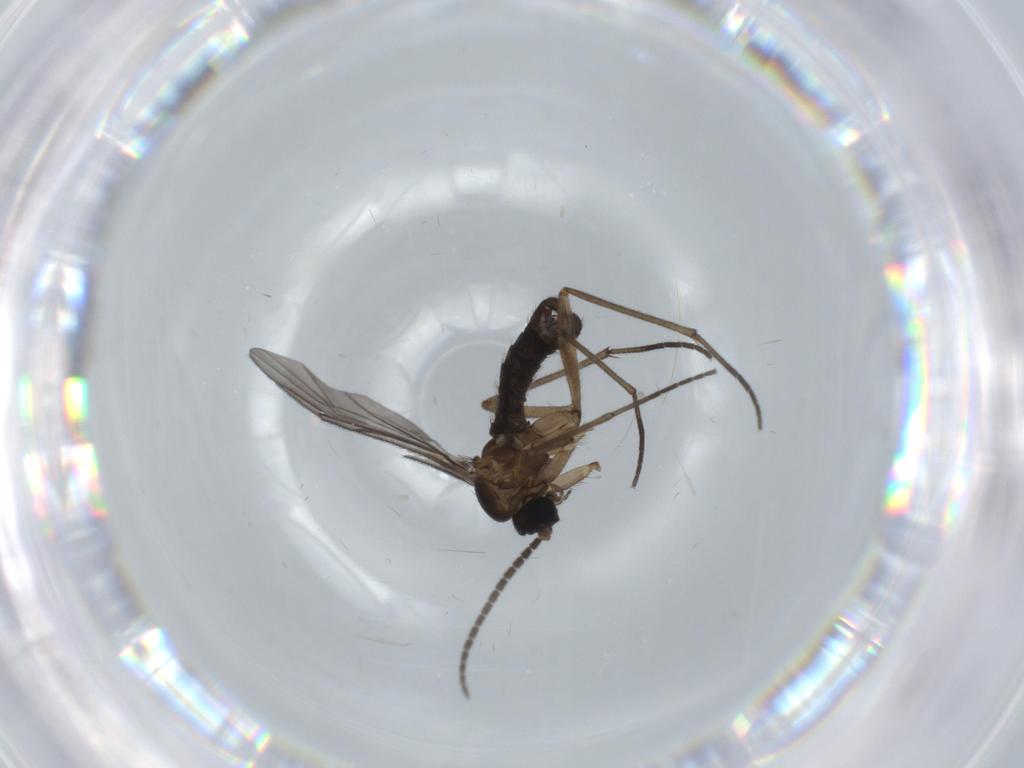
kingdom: Animalia
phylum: Arthropoda
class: Insecta
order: Diptera
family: Sciaridae
